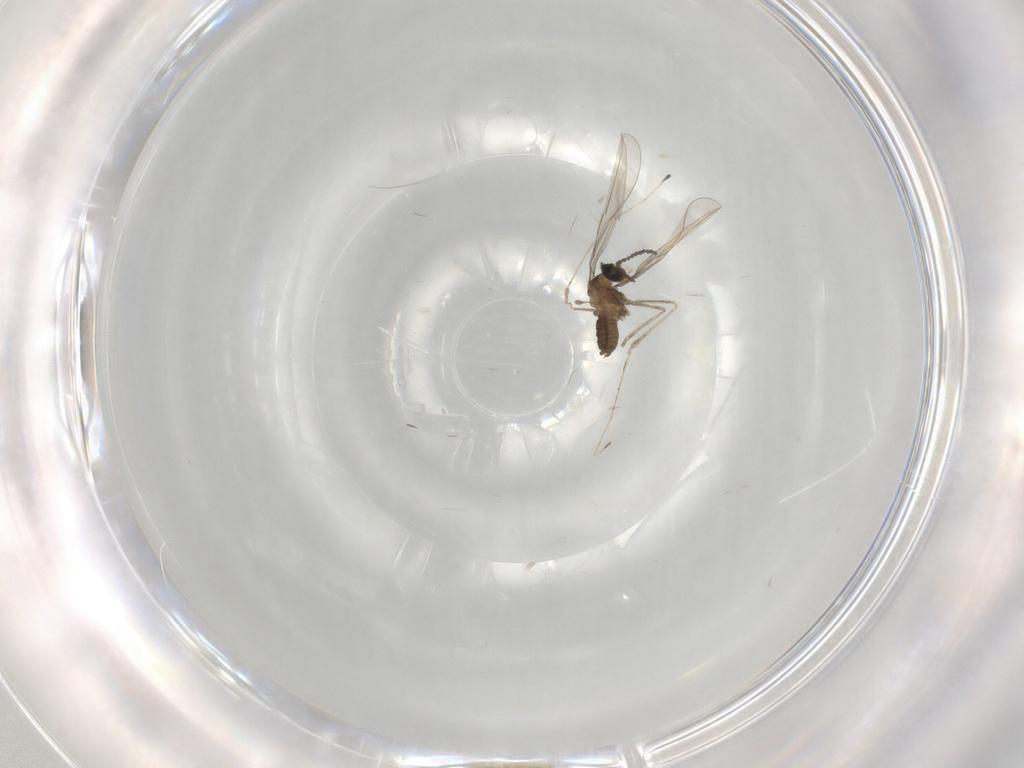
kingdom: Animalia
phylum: Arthropoda
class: Insecta
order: Diptera
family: Cecidomyiidae
